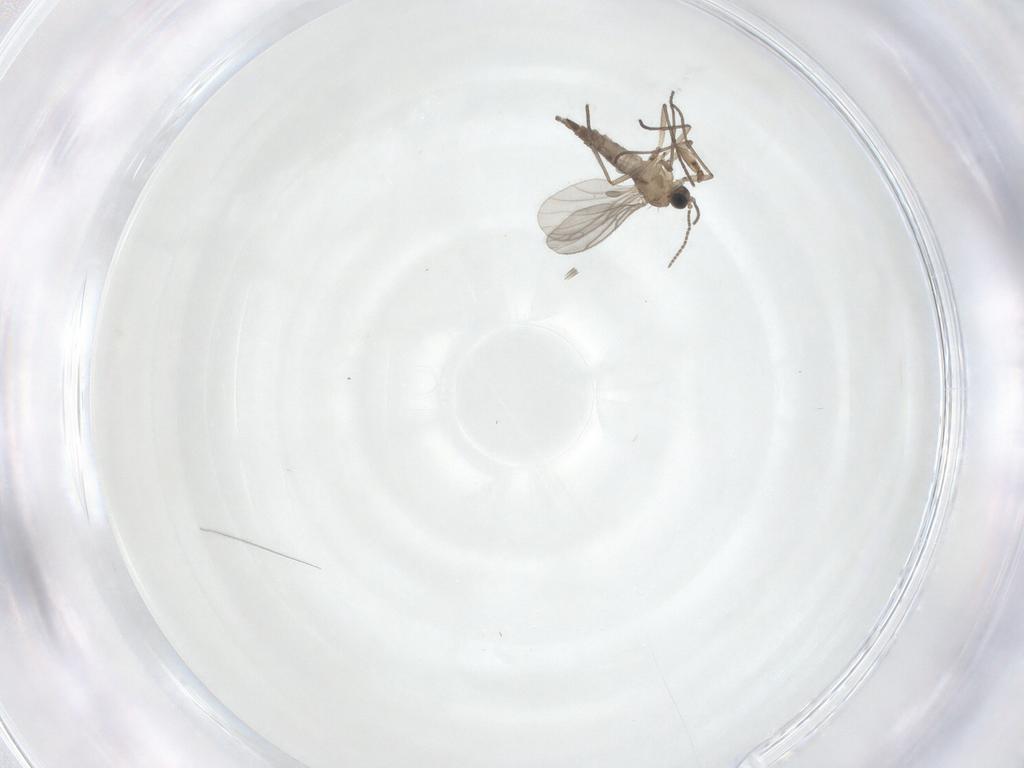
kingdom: Animalia
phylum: Arthropoda
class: Insecta
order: Diptera
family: Sciaridae
